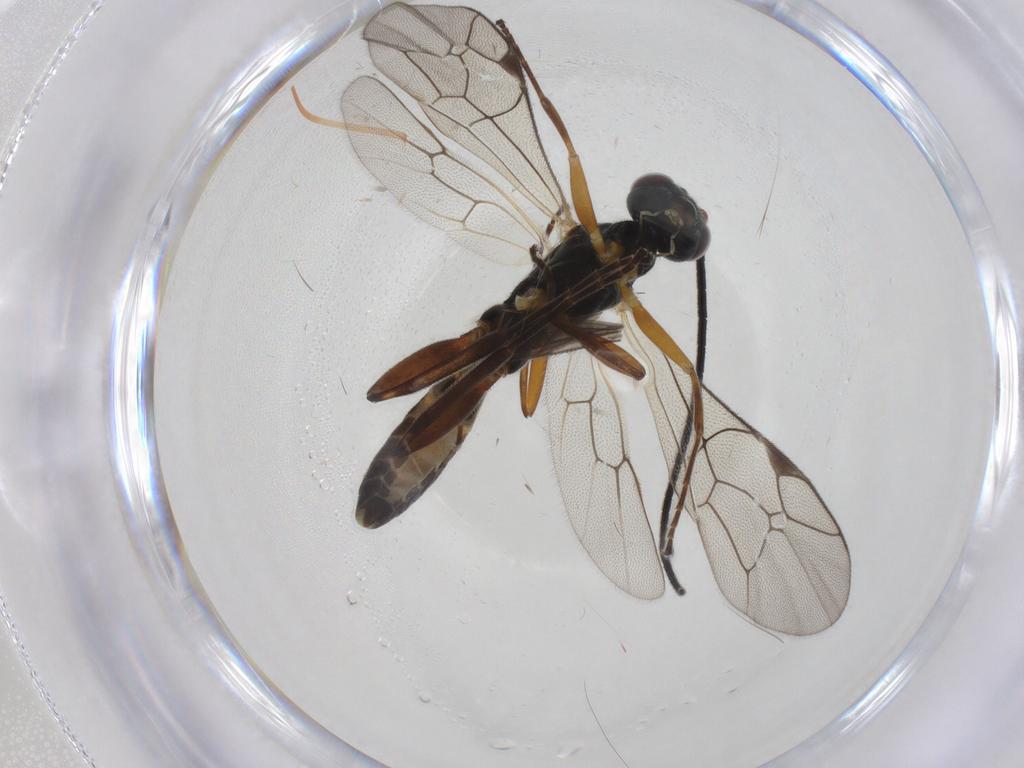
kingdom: Animalia
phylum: Arthropoda
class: Insecta
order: Hymenoptera
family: Ichneumonidae
